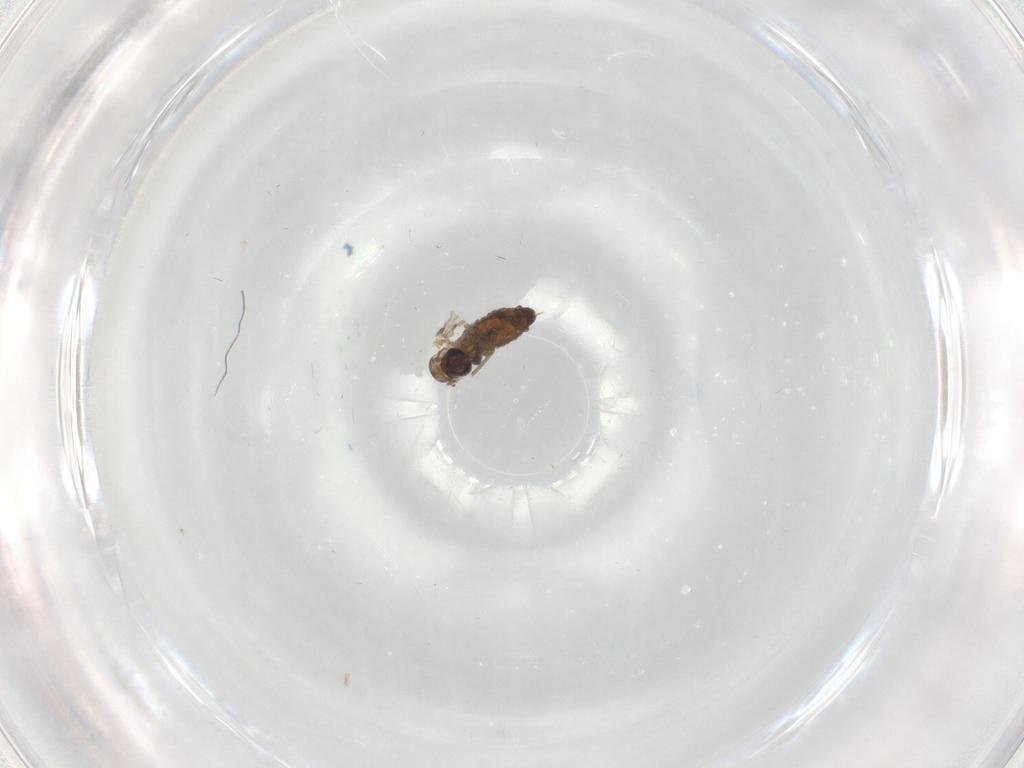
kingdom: Animalia
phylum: Arthropoda
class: Insecta
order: Diptera
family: Psychodidae
